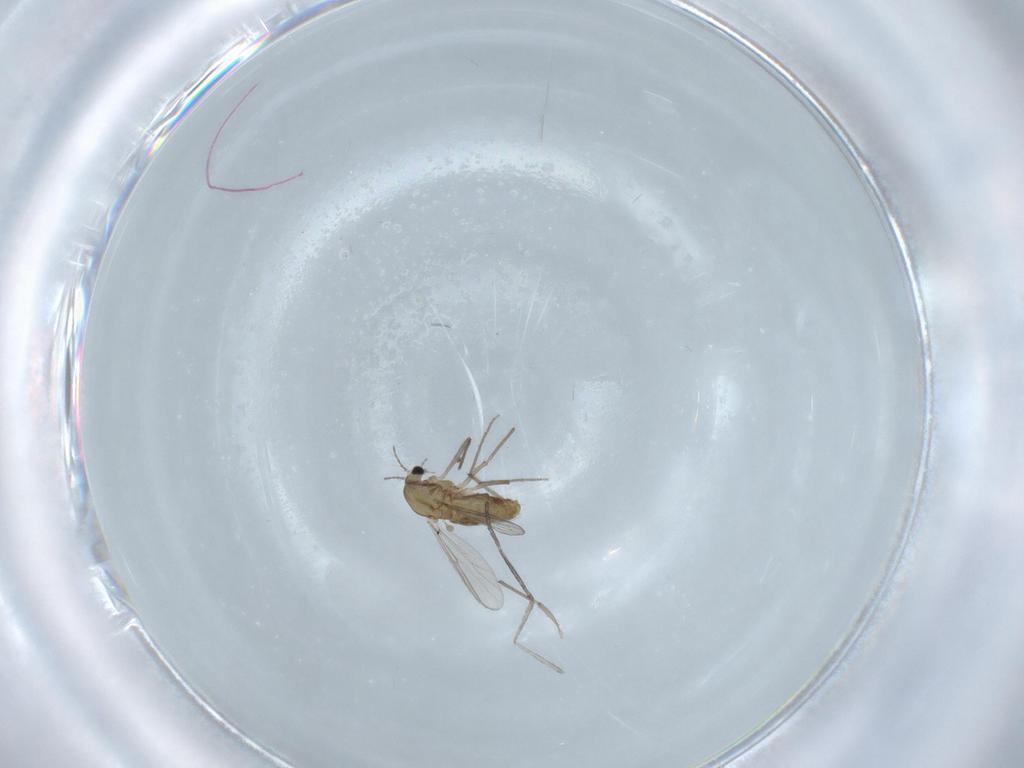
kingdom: Animalia
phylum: Arthropoda
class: Insecta
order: Diptera
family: Chironomidae
